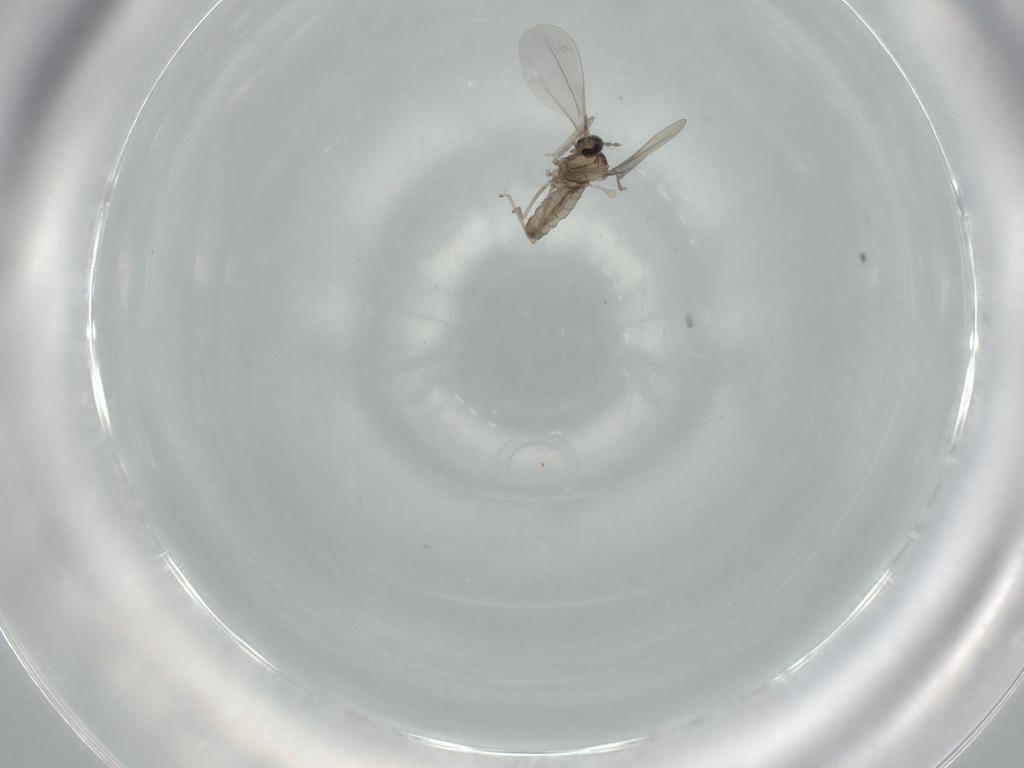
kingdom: Animalia
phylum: Arthropoda
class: Insecta
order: Diptera
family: Cecidomyiidae
